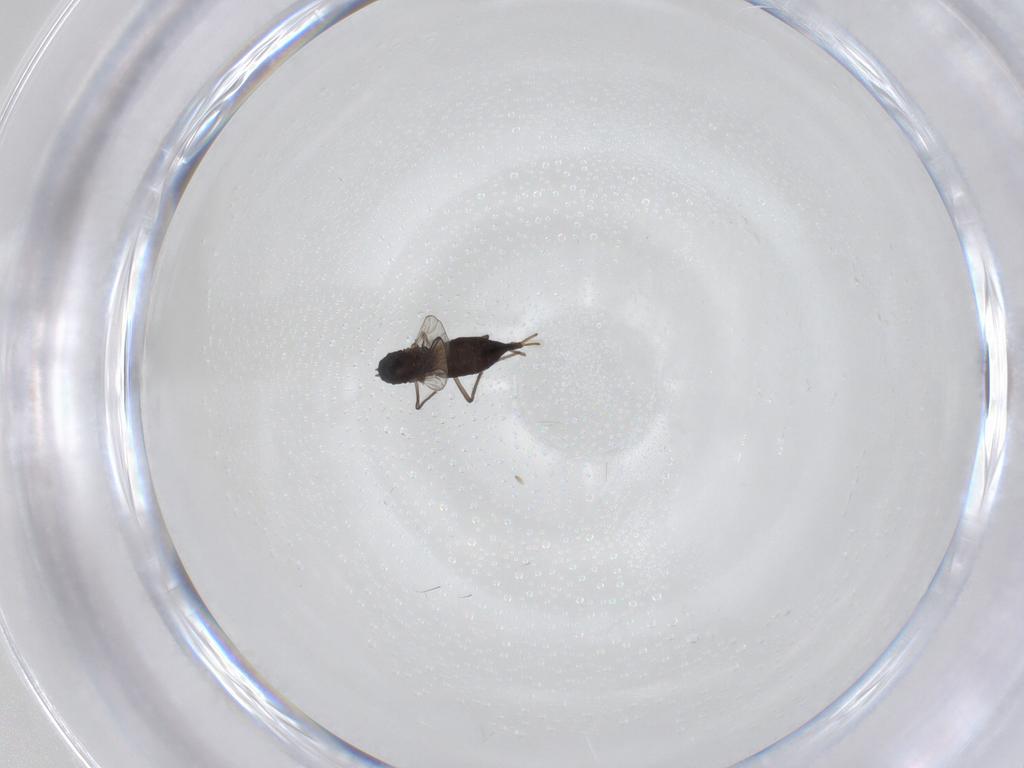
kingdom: Animalia
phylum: Arthropoda
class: Insecta
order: Diptera
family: Chironomidae
